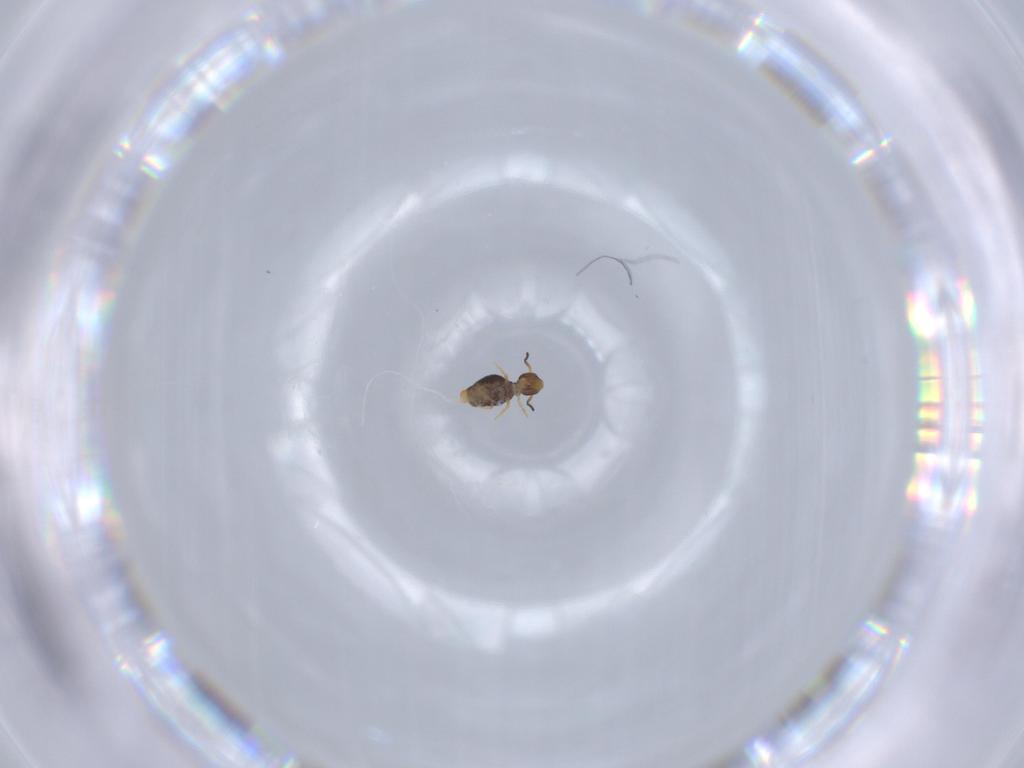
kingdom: Animalia
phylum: Arthropoda
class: Collembola
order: Symphypleona
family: Katiannidae
